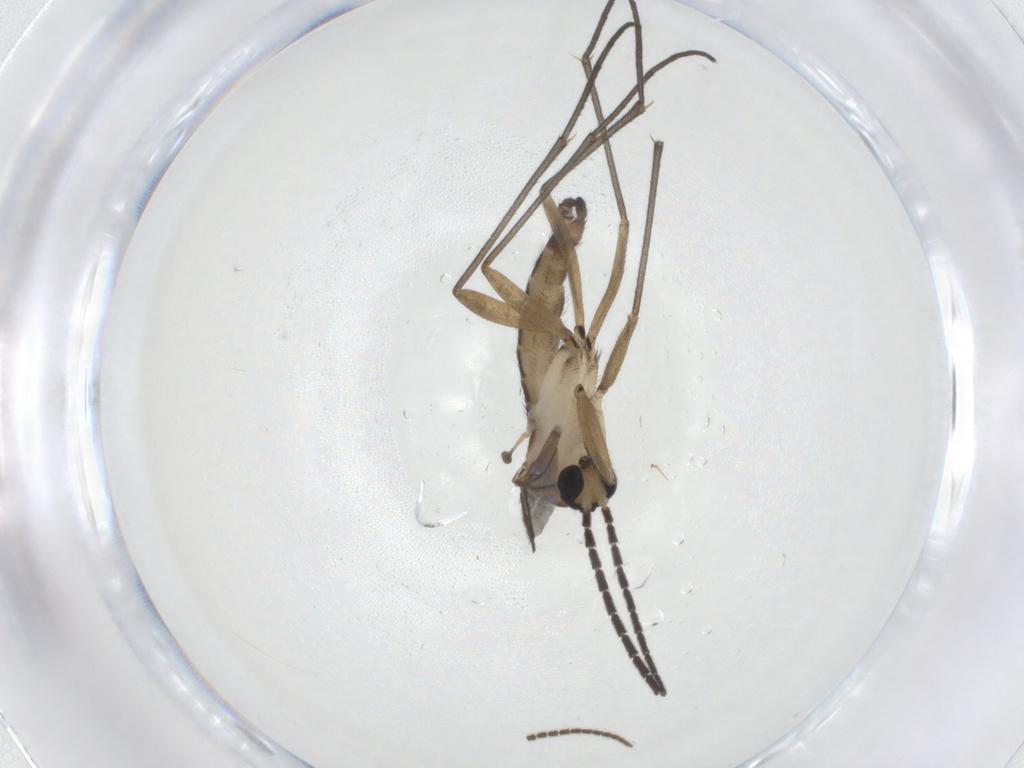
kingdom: Animalia
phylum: Arthropoda
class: Insecta
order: Diptera
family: Sciaridae
